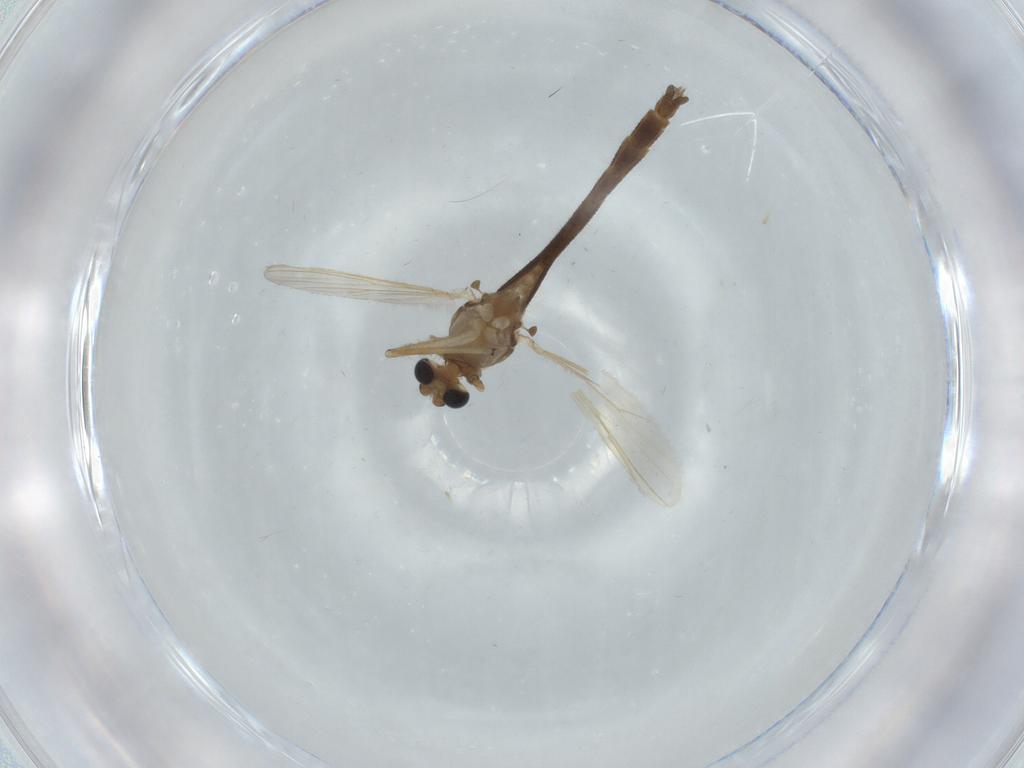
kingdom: Animalia
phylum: Arthropoda
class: Insecta
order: Diptera
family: Chironomidae
